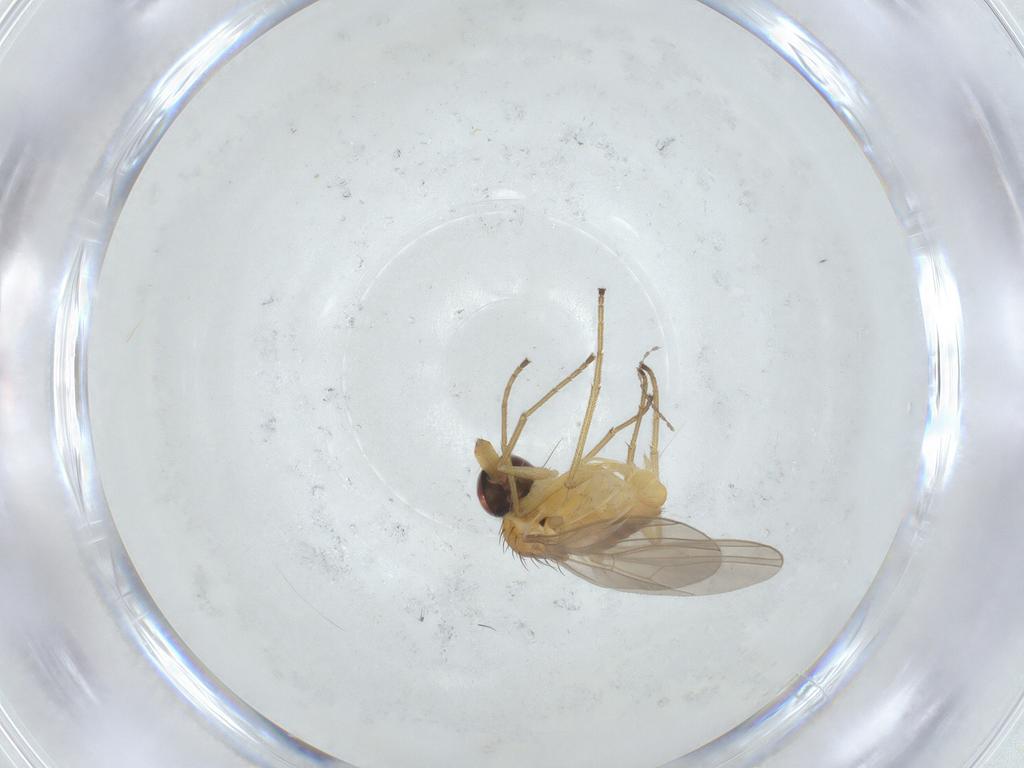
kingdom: Animalia
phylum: Arthropoda
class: Insecta
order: Diptera
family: Dolichopodidae
